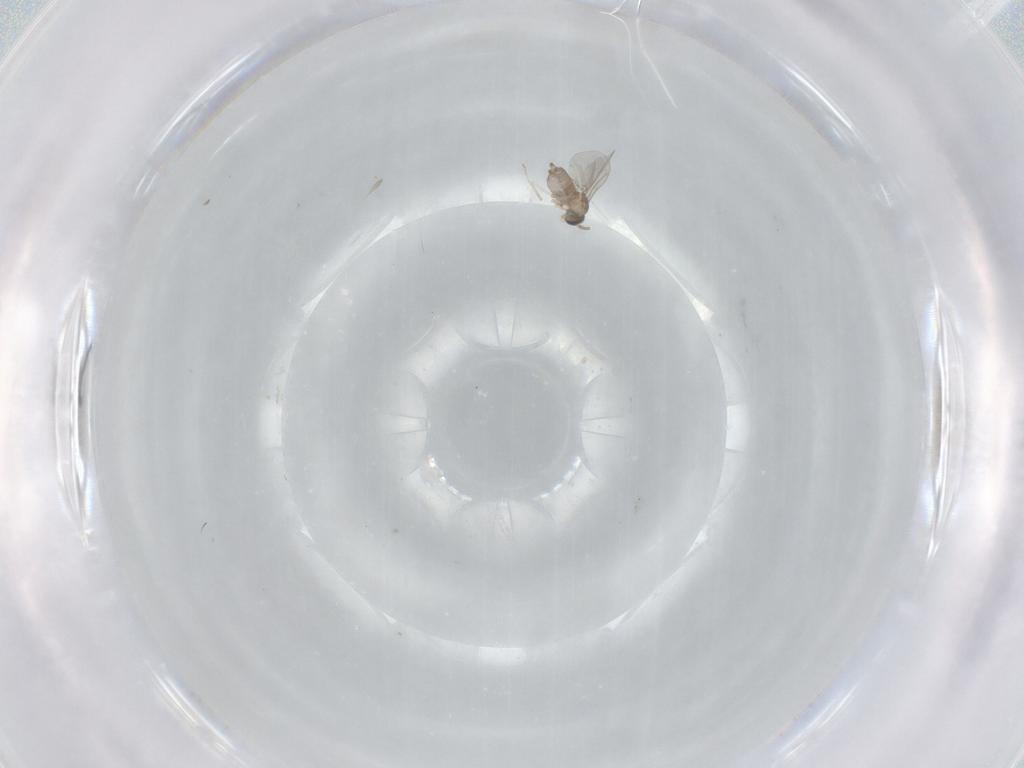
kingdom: Animalia
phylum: Arthropoda
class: Insecta
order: Diptera
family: Cecidomyiidae
